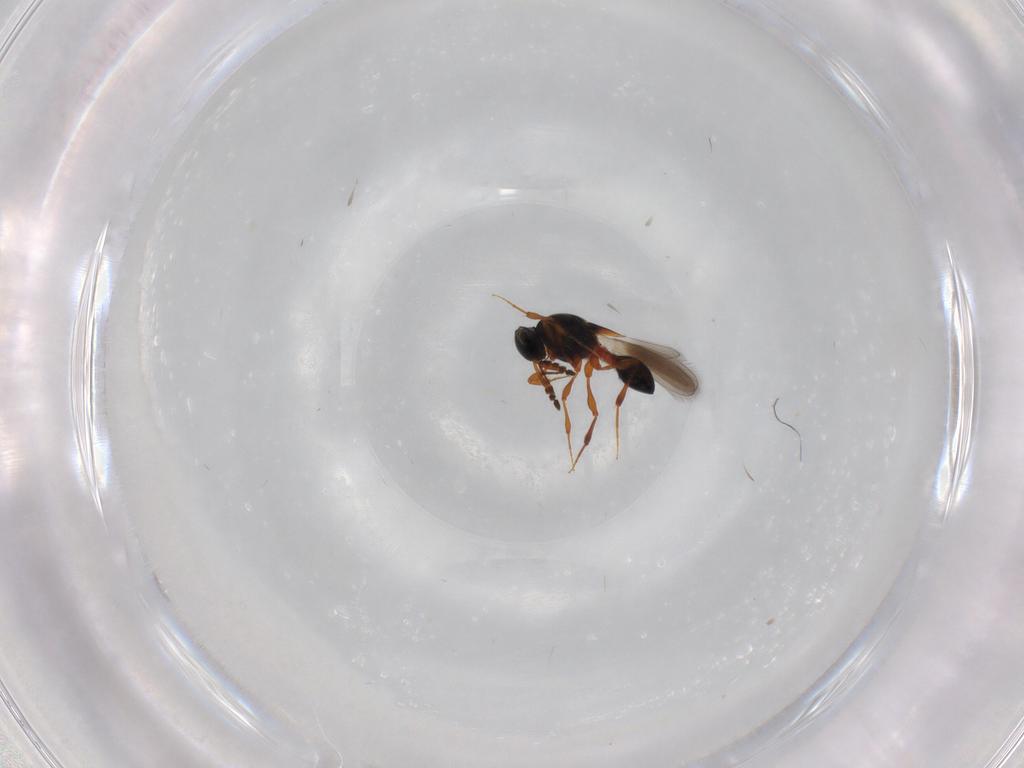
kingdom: Animalia
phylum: Arthropoda
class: Insecta
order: Hymenoptera
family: Platygastridae
